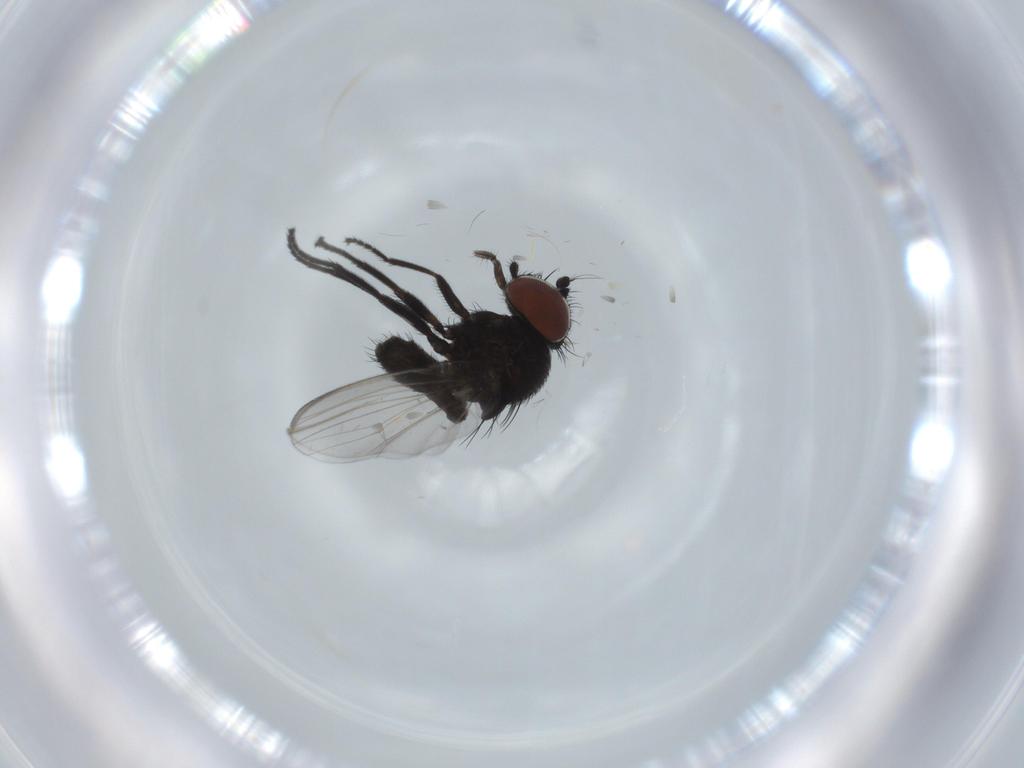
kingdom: Animalia
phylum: Arthropoda
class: Insecta
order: Diptera
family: Milichiidae
